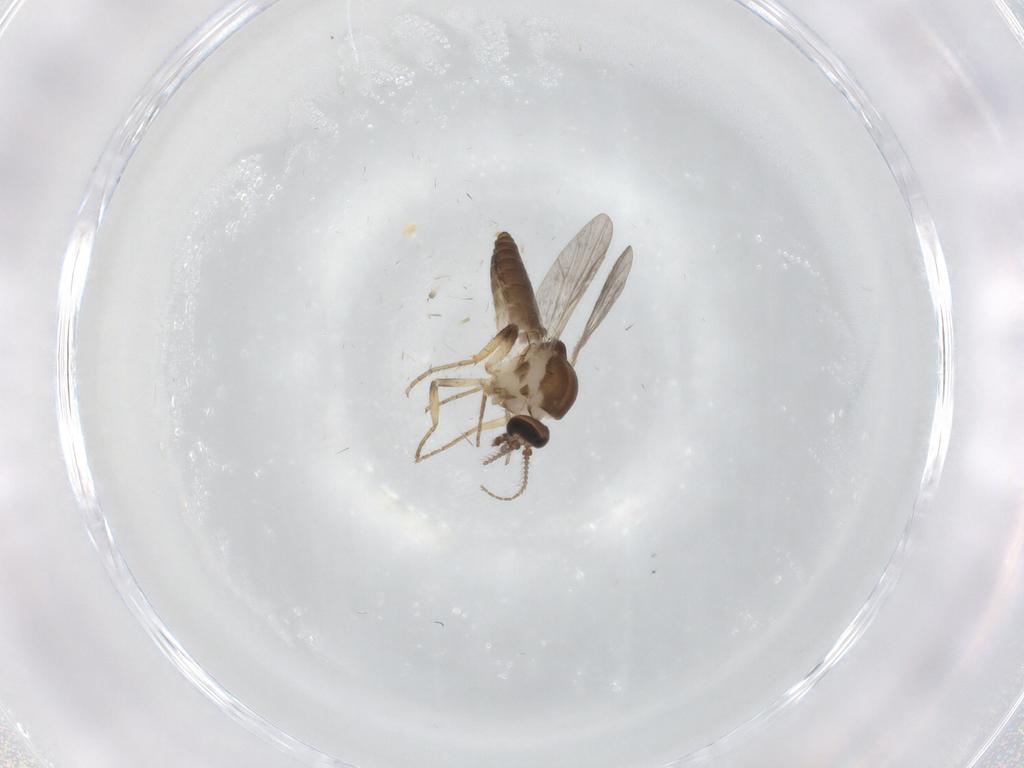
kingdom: Animalia
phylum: Arthropoda
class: Insecta
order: Diptera
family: Ceratopogonidae
